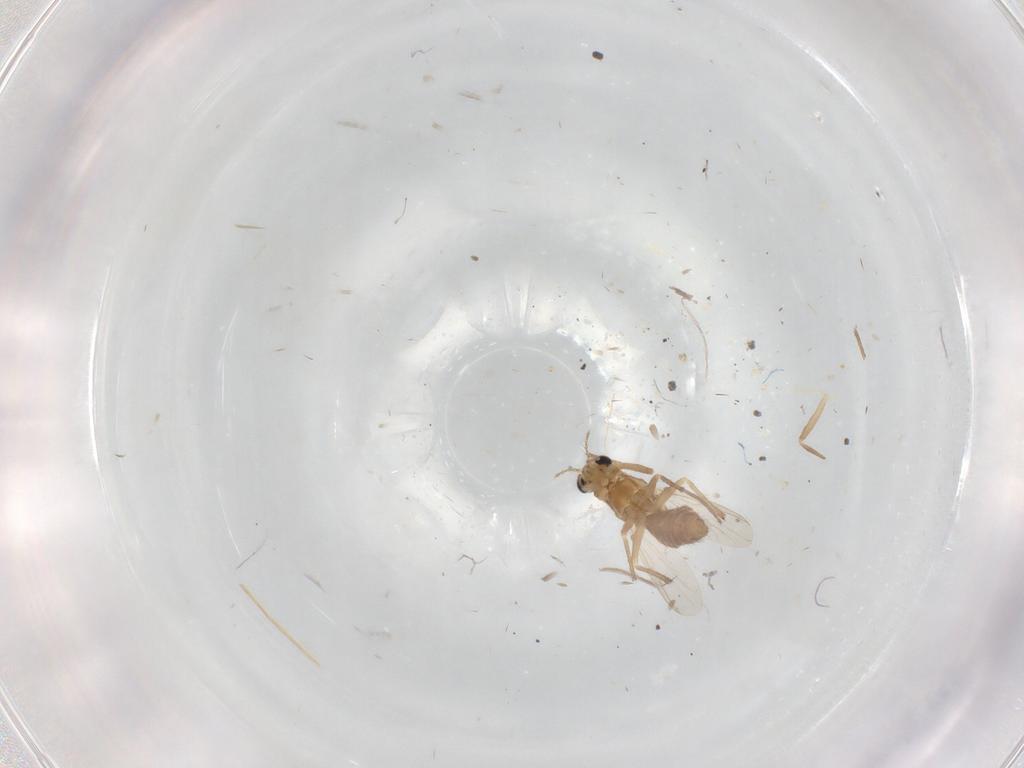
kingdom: Animalia
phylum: Arthropoda
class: Insecta
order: Diptera
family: Chironomidae
